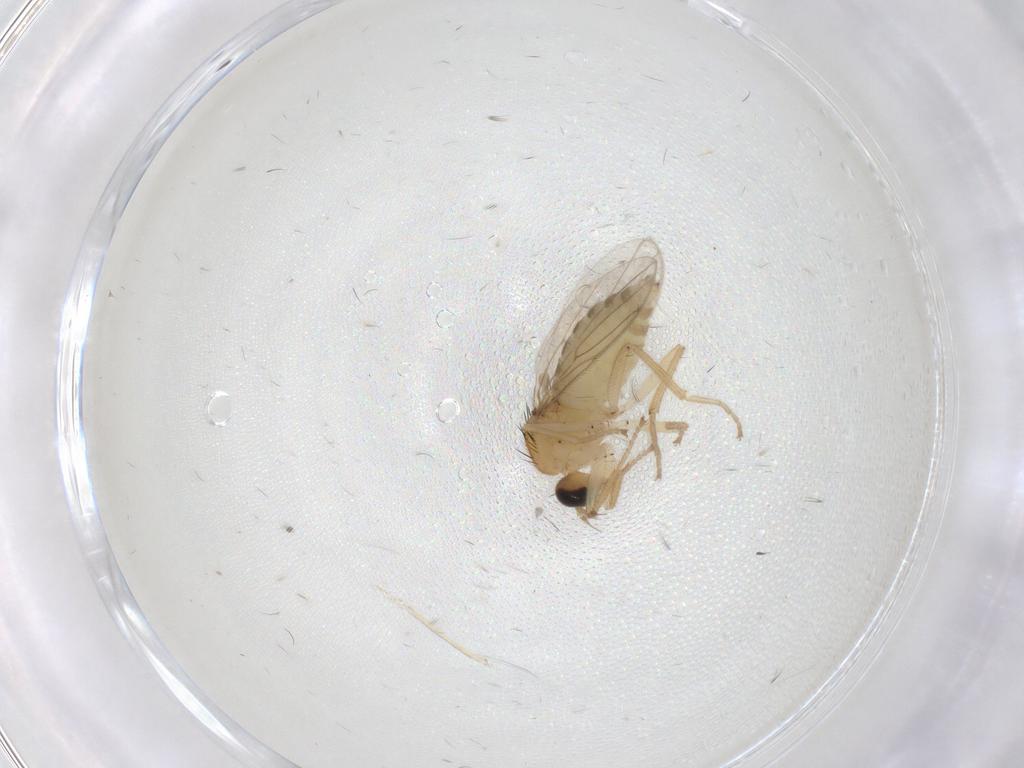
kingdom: Animalia
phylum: Arthropoda
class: Insecta
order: Diptera
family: Hybotidae
